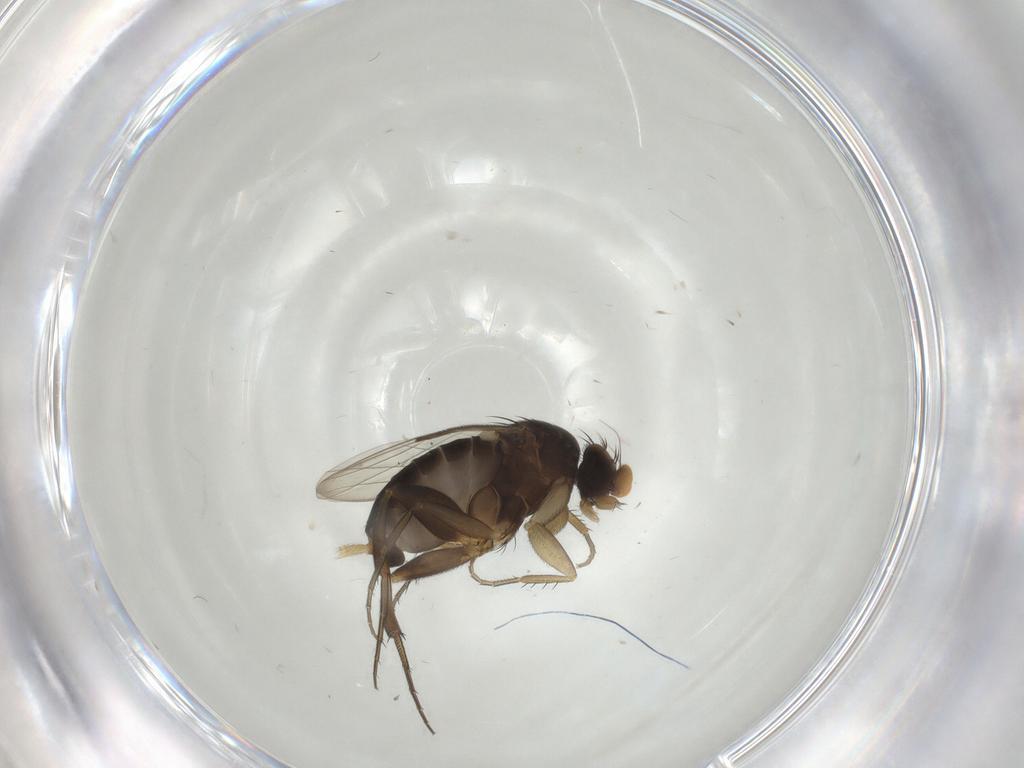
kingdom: Animalia
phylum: Arthropoda
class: Insecta
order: Diptera
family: Phoridae
